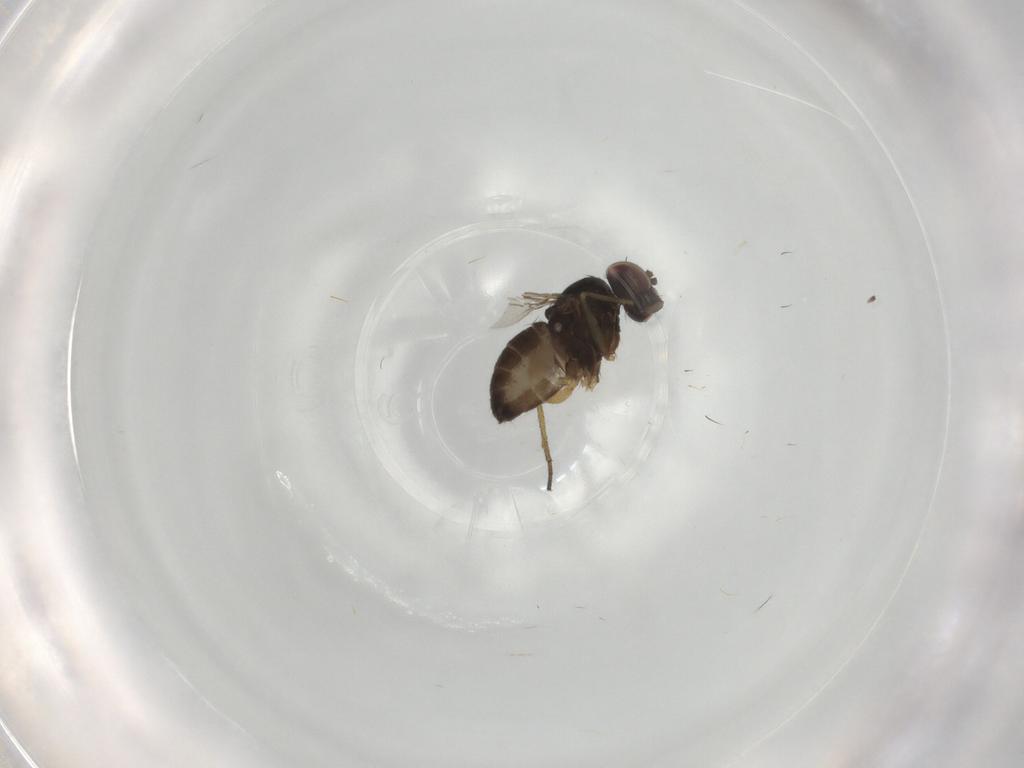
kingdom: Animalia
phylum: Arthropoda
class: Insecta
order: Diptera
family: Dolichopodidae
